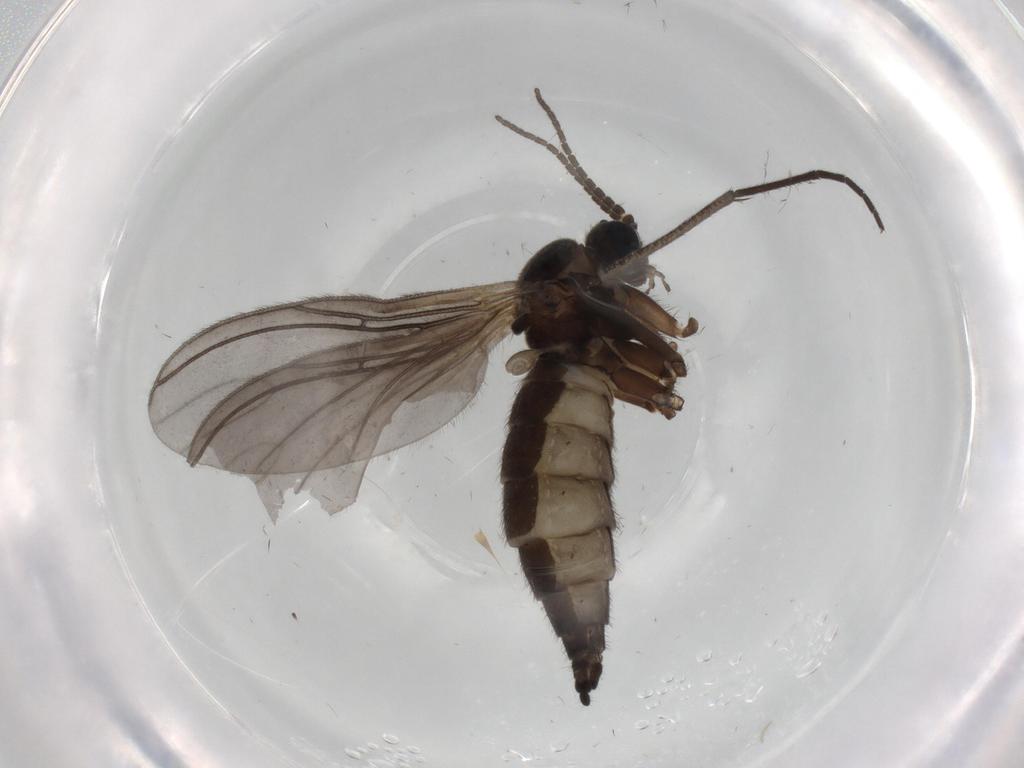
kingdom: Animalia
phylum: Arthropoda
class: Insecta
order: Diptera
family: Sciaridae
